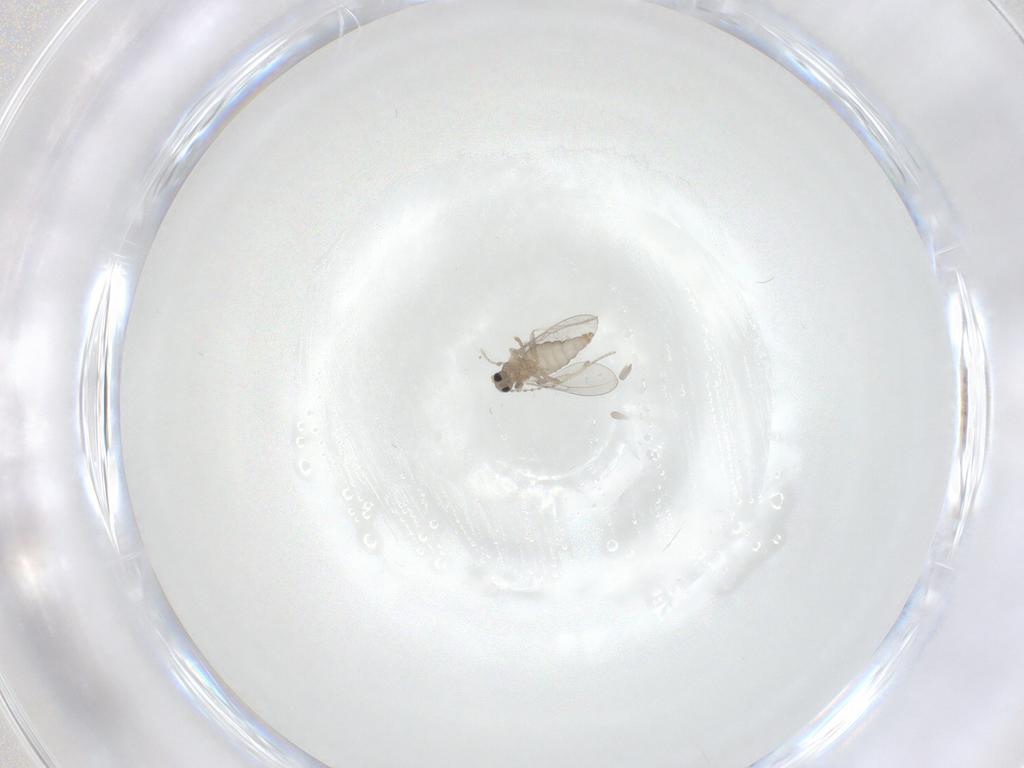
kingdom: Animalia
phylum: Arthropoda
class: Insecta
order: Diptera
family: Cecidomyiidae
